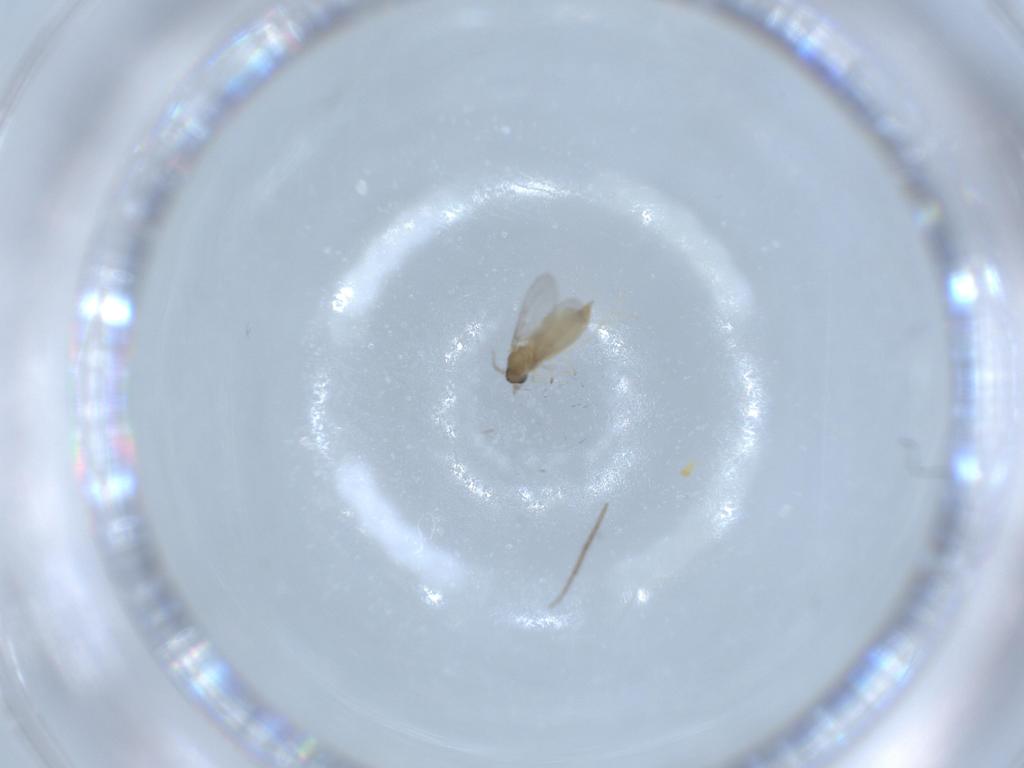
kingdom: Animalia
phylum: Arthropoda
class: Insecta
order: Diptera
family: Cecidomyiidae
